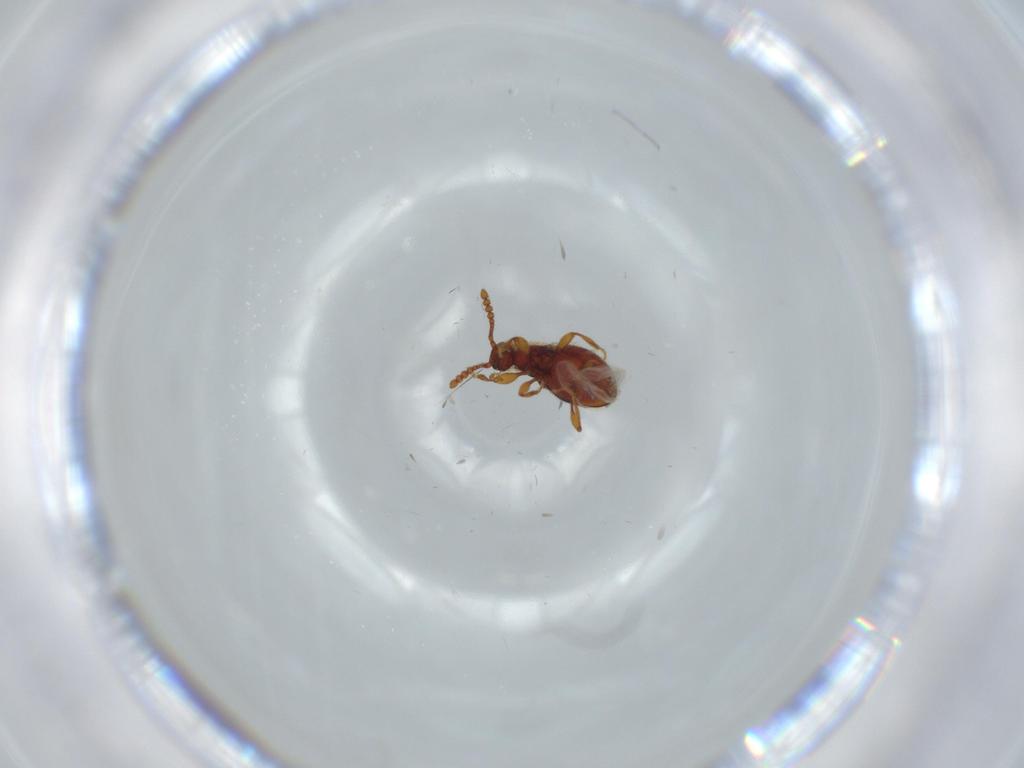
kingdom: Animalia
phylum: Arthropoda
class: Insecta
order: Coleoptera
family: Staphylinidae
